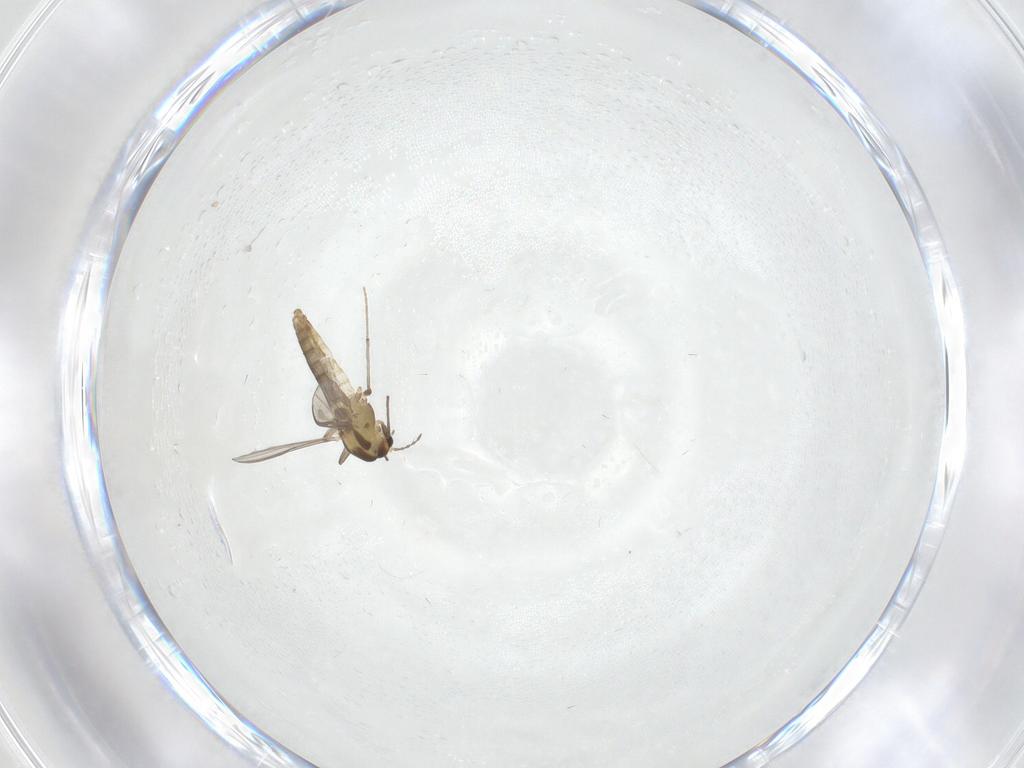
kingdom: Animalia
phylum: Arthropoda
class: Insecta
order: Diptera
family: Chironomidae
